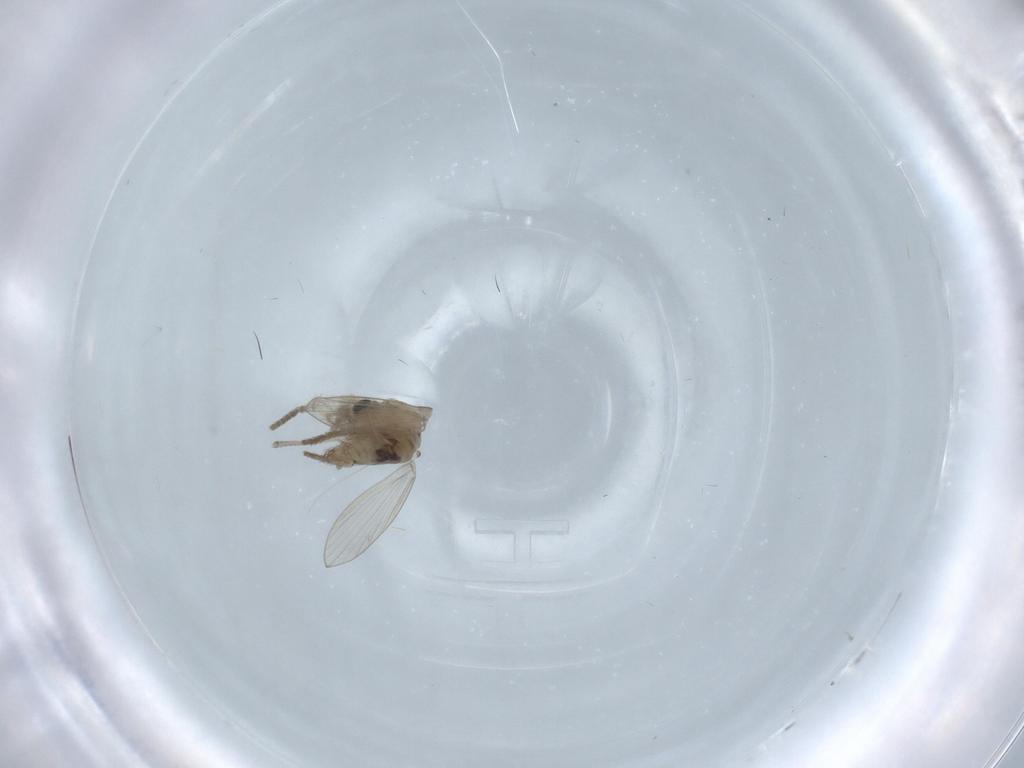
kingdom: Animalia
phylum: Arthropoda
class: Insecta
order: Diptera
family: Psychodidae
